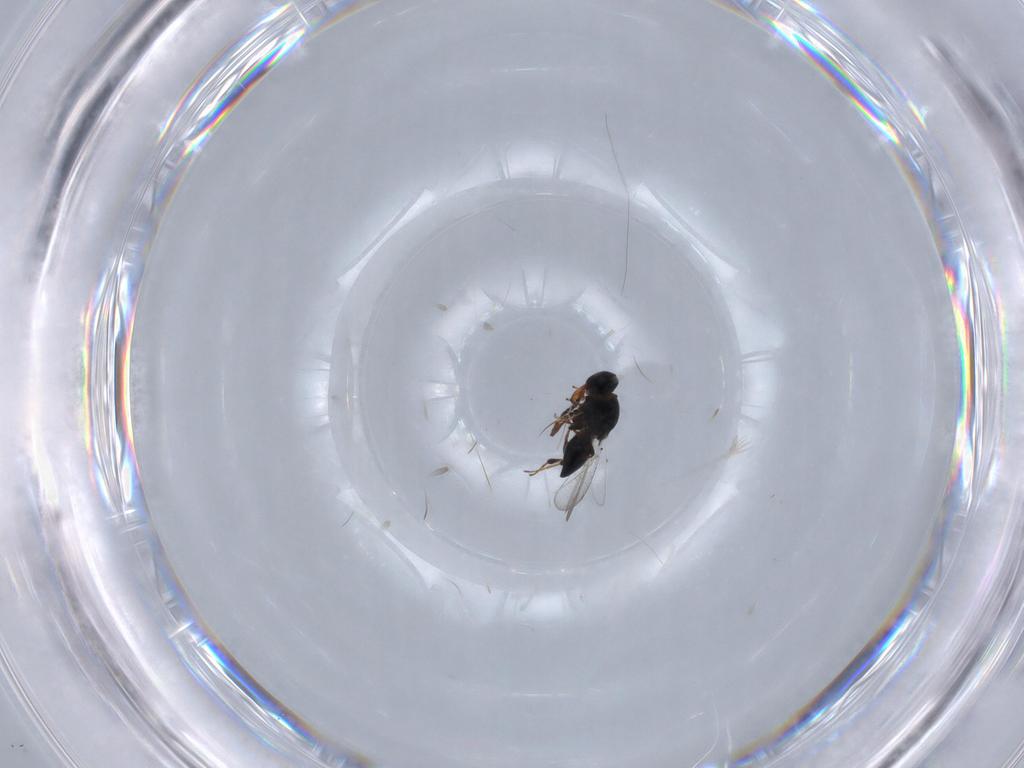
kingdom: Animalia
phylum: Arthropoda
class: Insecta
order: Hymenoptera
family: Platygastridae
